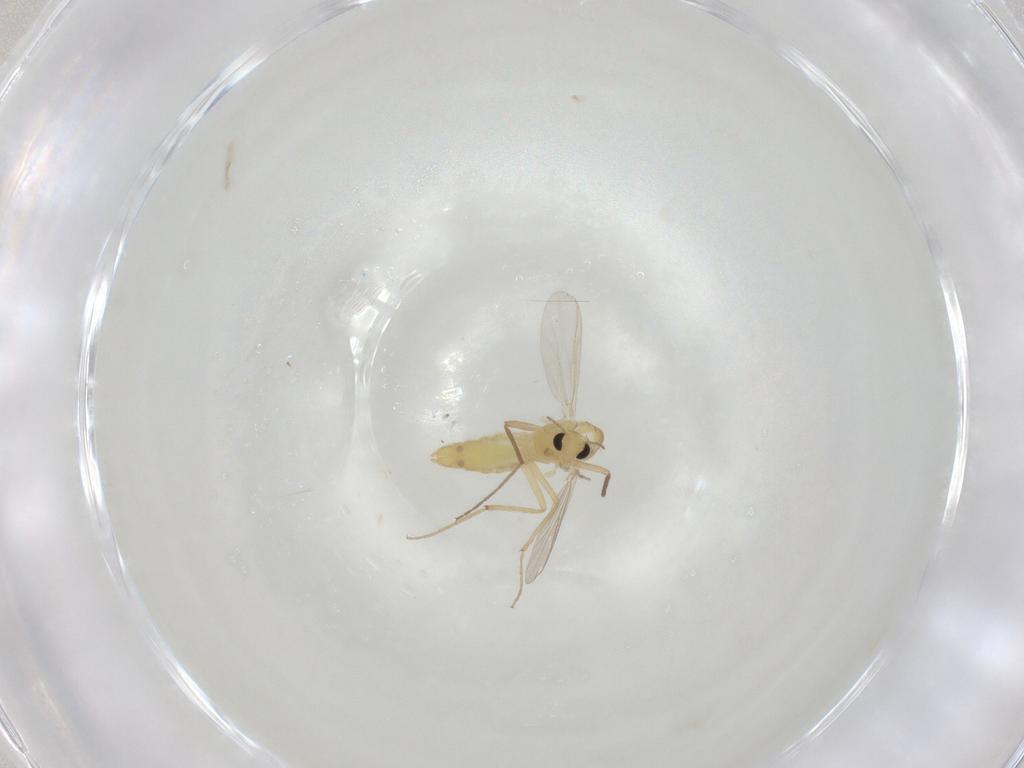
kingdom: Animalia
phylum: Arthropoda
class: Insecta
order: Diptera
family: Chironomidae
